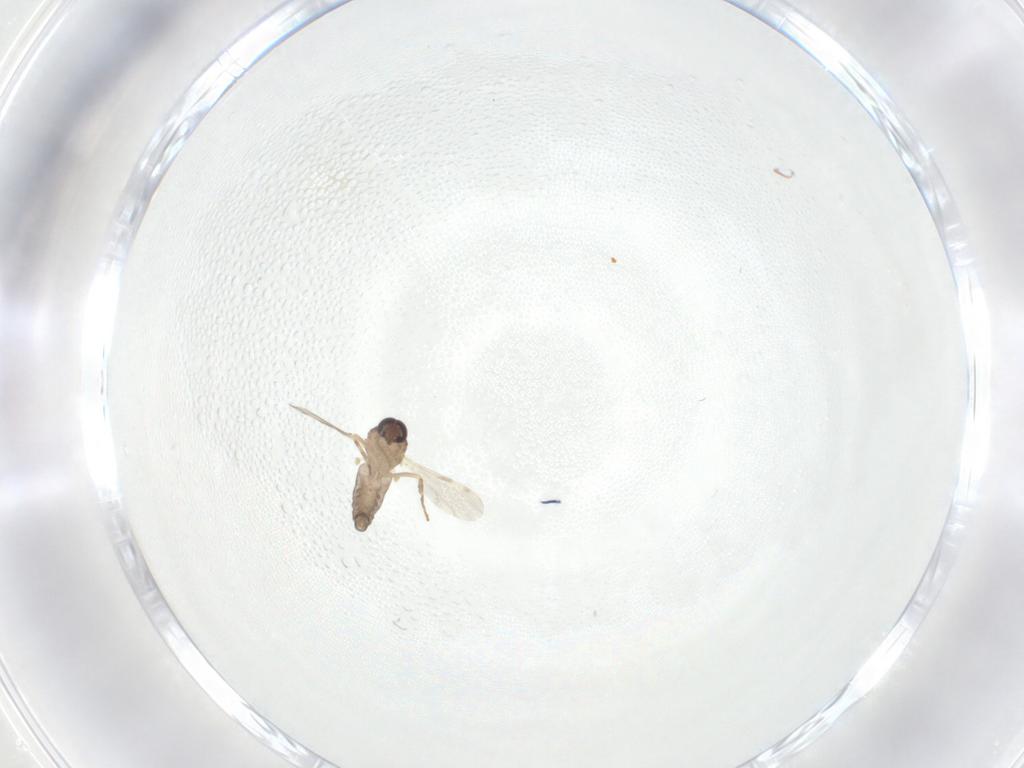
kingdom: Animalia
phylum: Arthropoda
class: Insecta
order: Diptera
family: Ceratopogonidae
